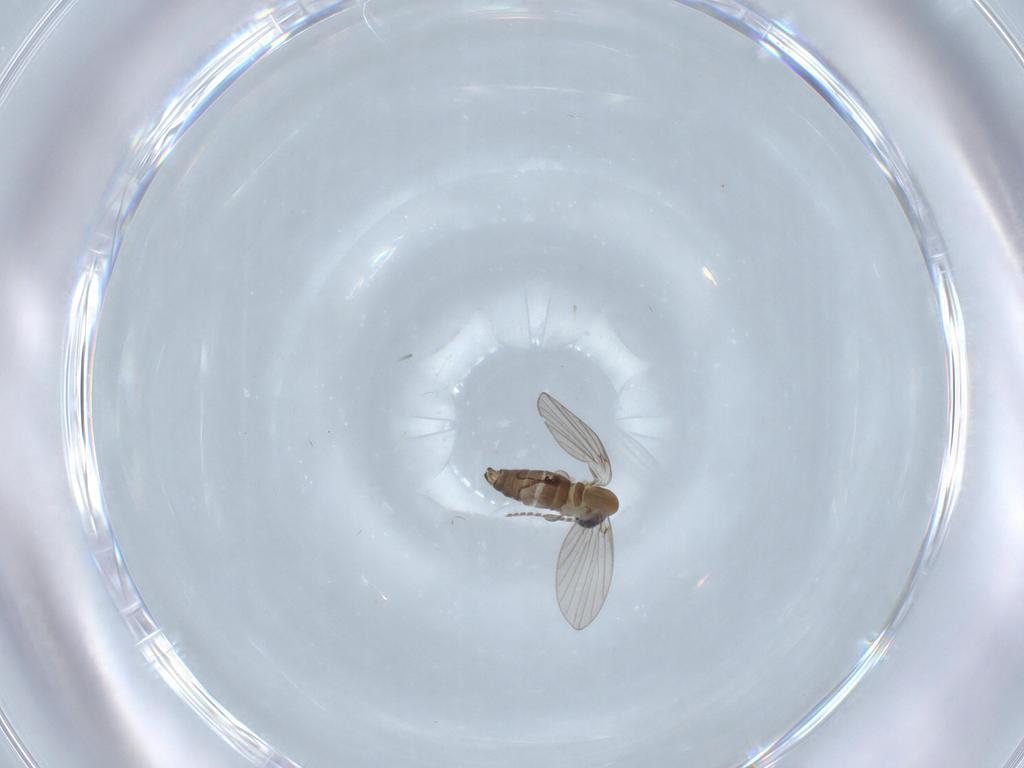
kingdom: Animalia
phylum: Arthropoda
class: Insecta
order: Diptera
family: Psychodidae
